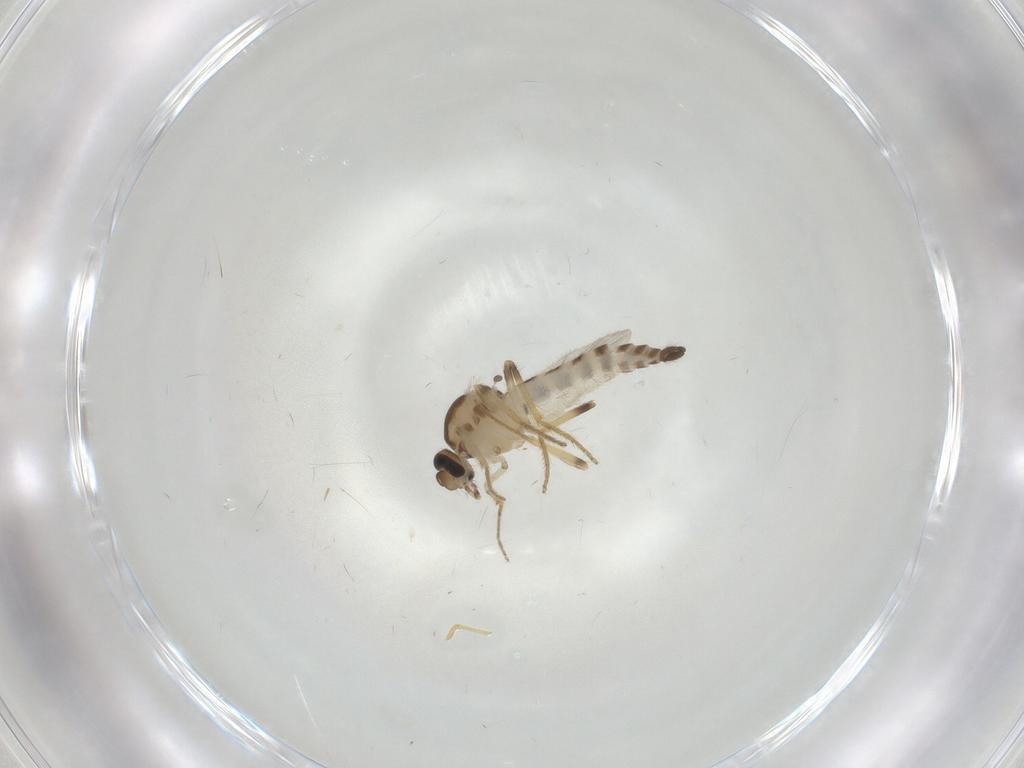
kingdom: Animalia
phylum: Arthropoda
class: Insecta
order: Diptera
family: Ceratopogonidae
